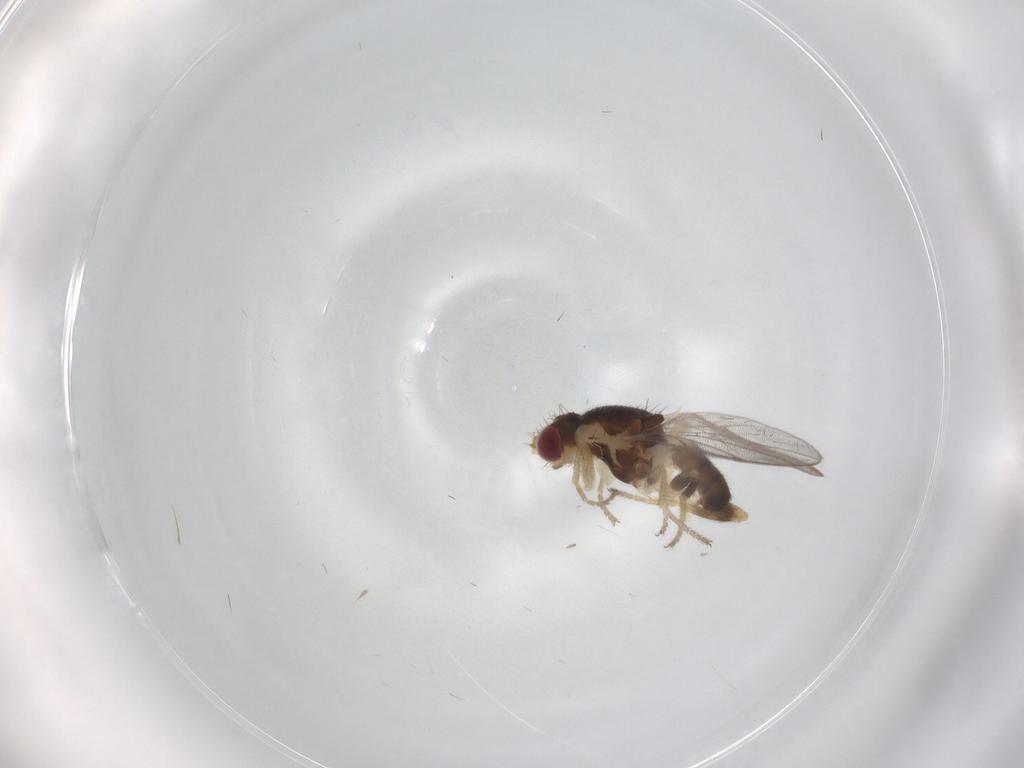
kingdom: Animalia
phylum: Arthropoda
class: Insecta
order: Diptera
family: Chloropidae
